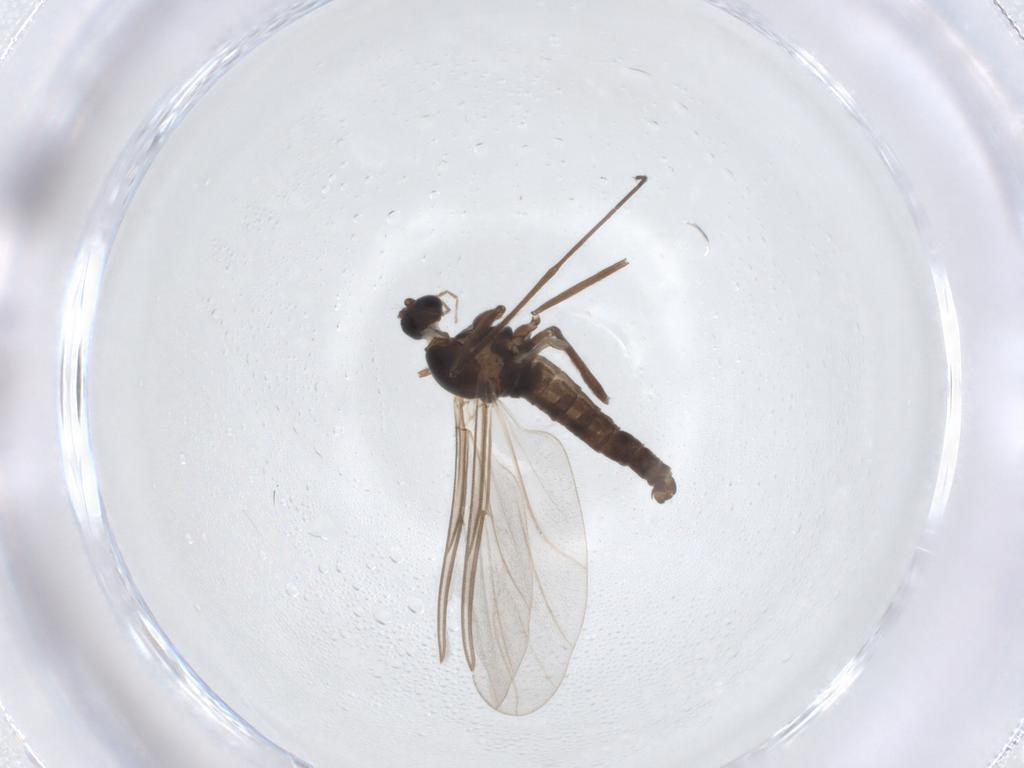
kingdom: Animalia
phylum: Arthropoda
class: Insecta
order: Diptera
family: Cecidomyiidae
